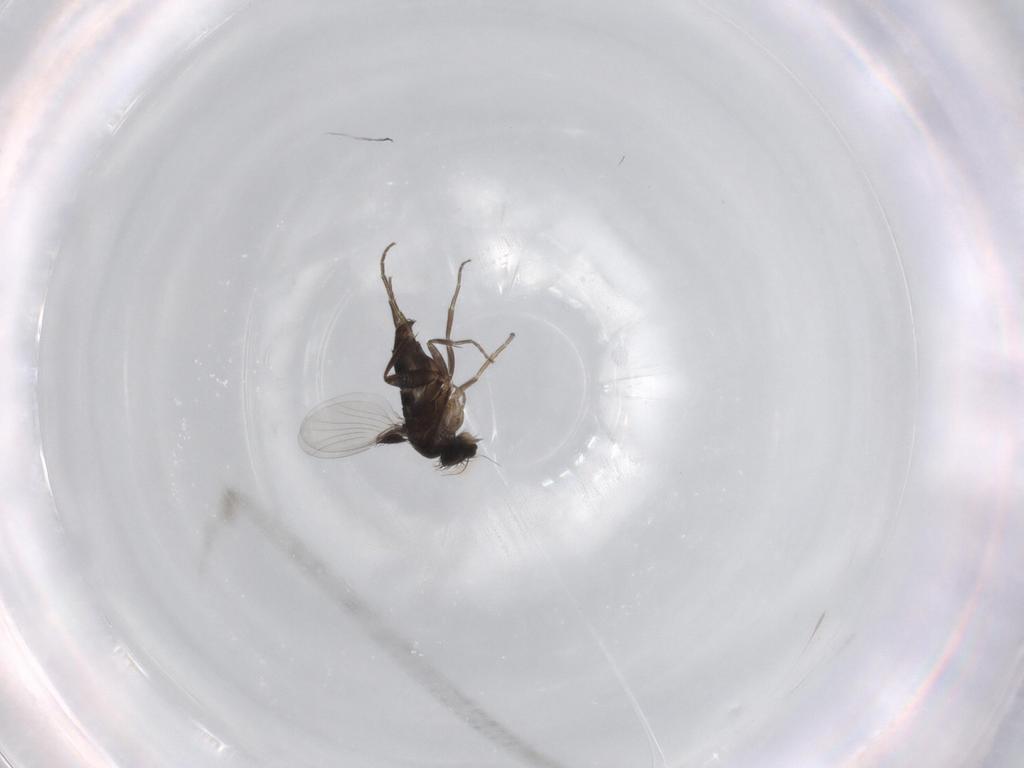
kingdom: Animalia
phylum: Arthropoda
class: Insecta
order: Diptera
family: Phoridae
